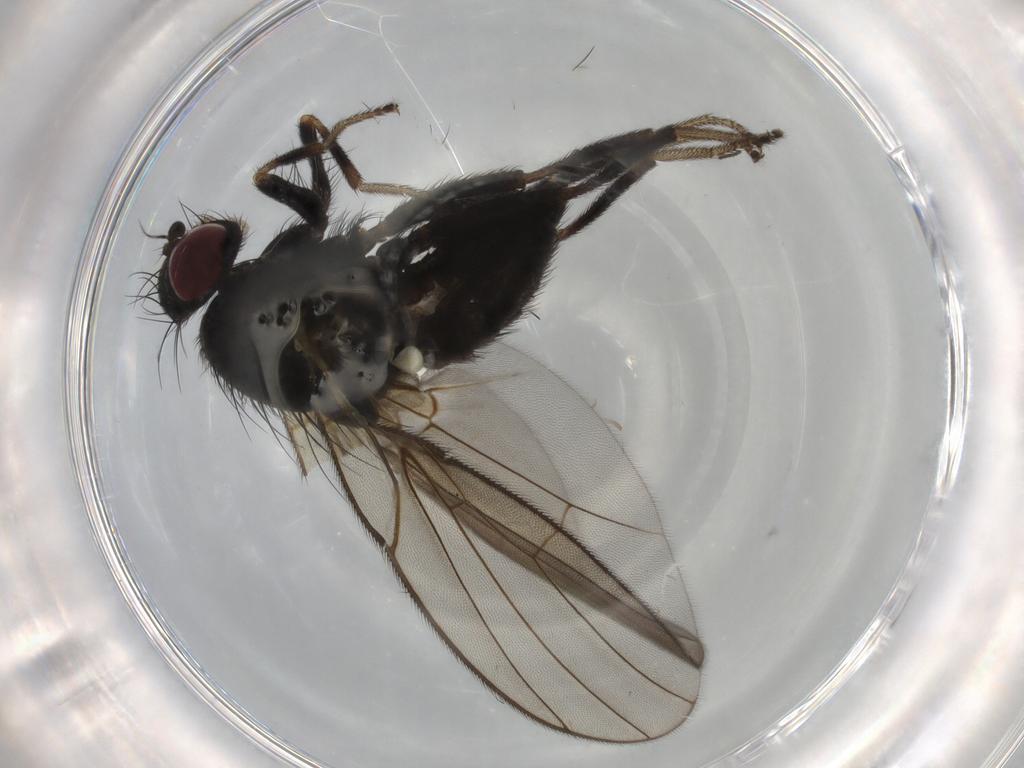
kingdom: Animalia
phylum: Arthropoda
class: Insecta
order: Diptera
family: Agromyzidae
